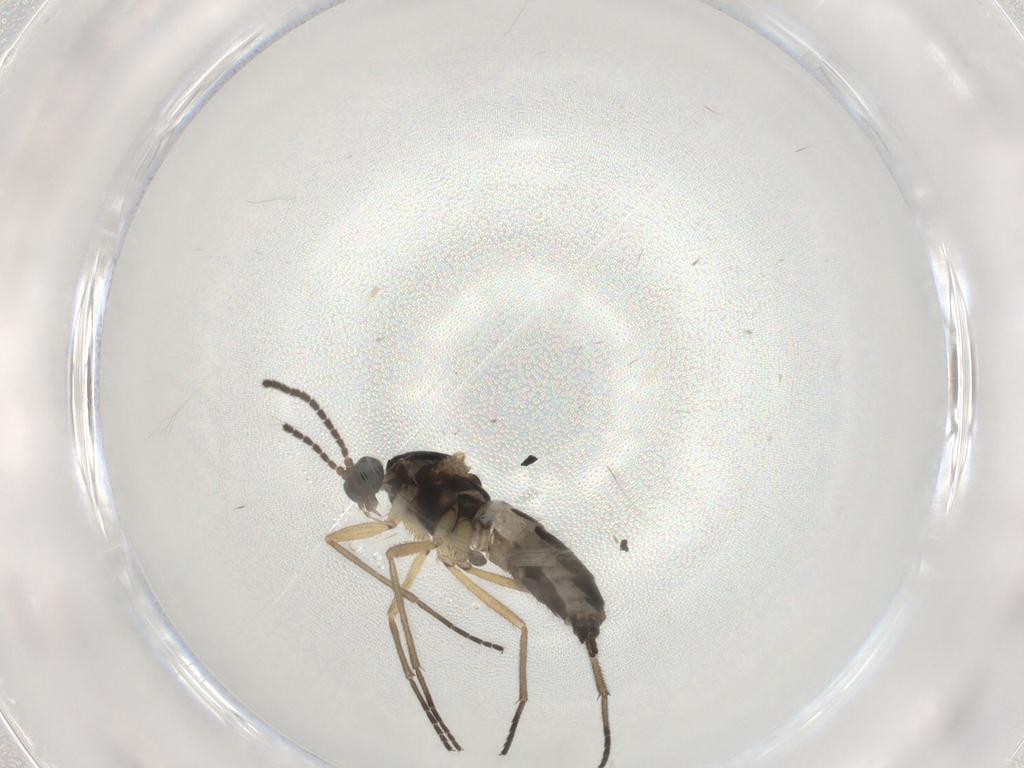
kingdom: Animalia
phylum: Arthropoda
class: Insecta
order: Diptera
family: Sciaridae
